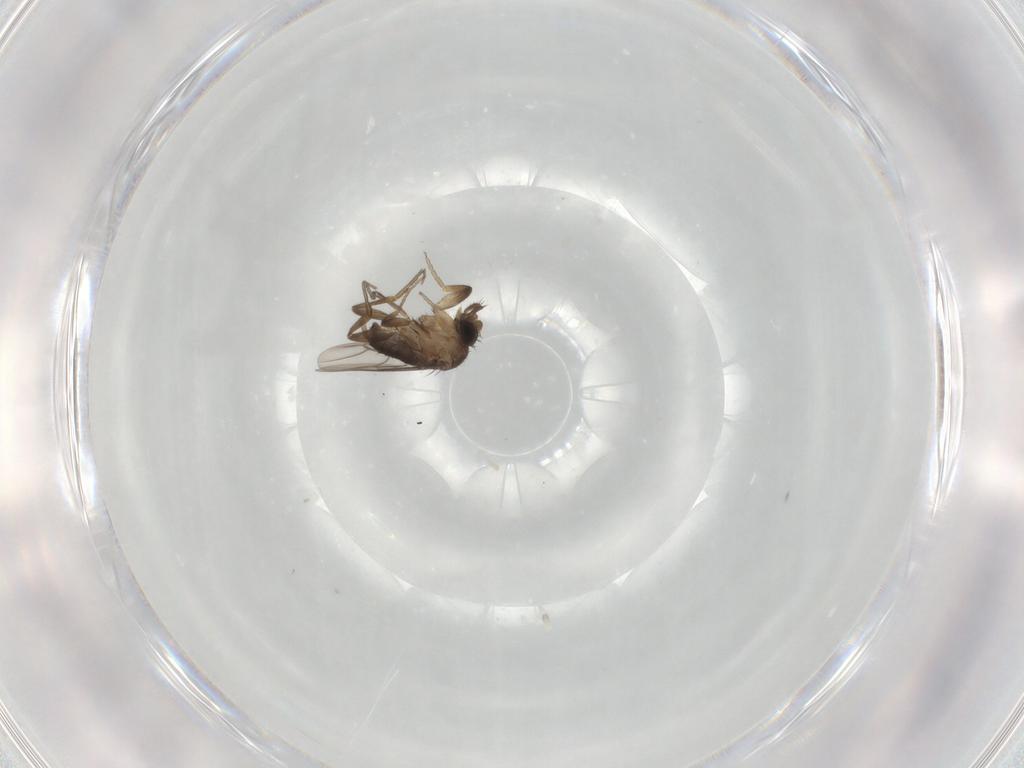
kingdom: Animalia
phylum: Arthropoda
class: Insecta
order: Diptera
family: Phoridae
